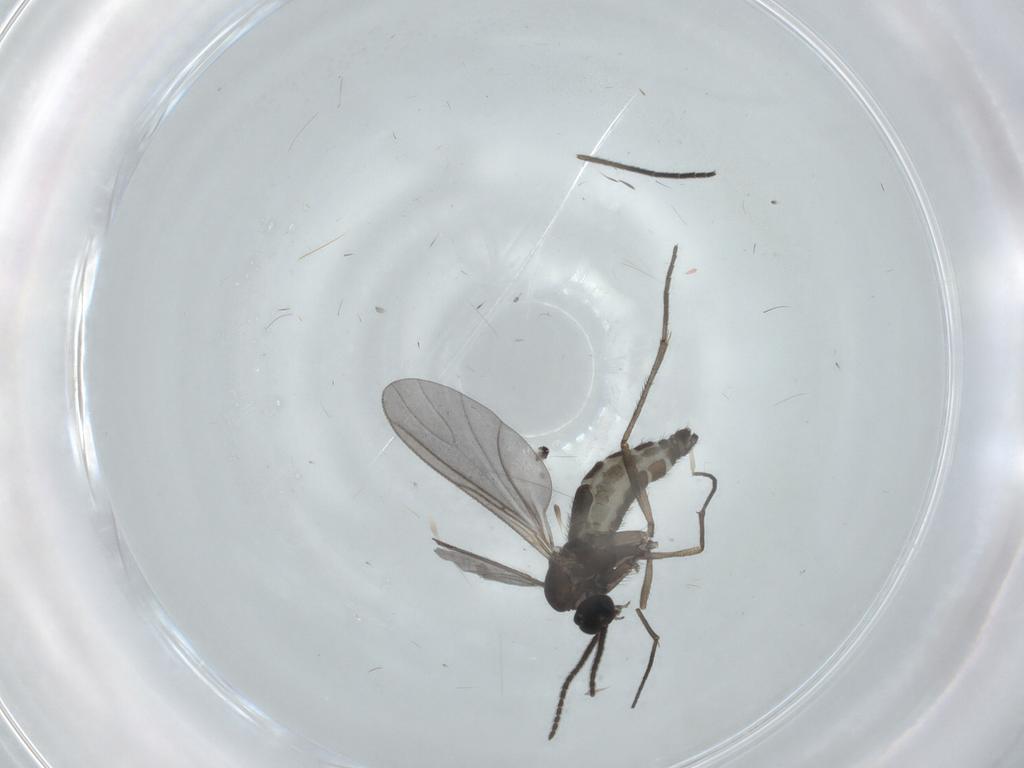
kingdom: Animalia
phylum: Arthropoda
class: Insecta
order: Diptera
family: Sciaridae
